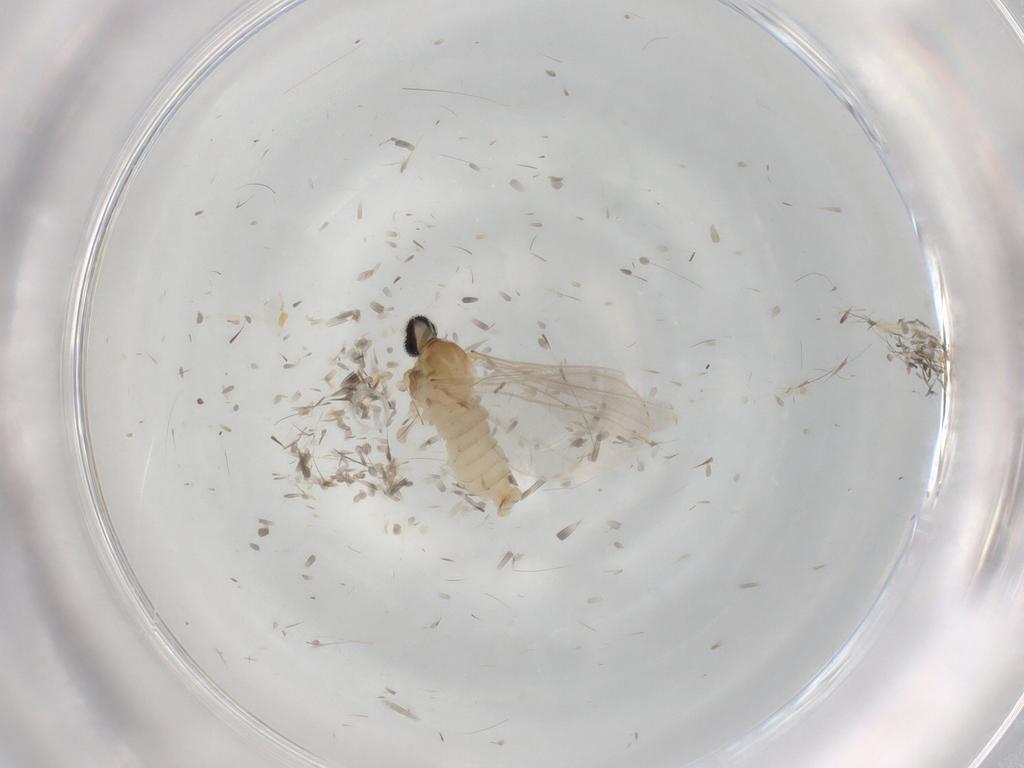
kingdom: Animalia
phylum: Arthropoda
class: Insecta
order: Diptera
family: Cecidomyiidae
